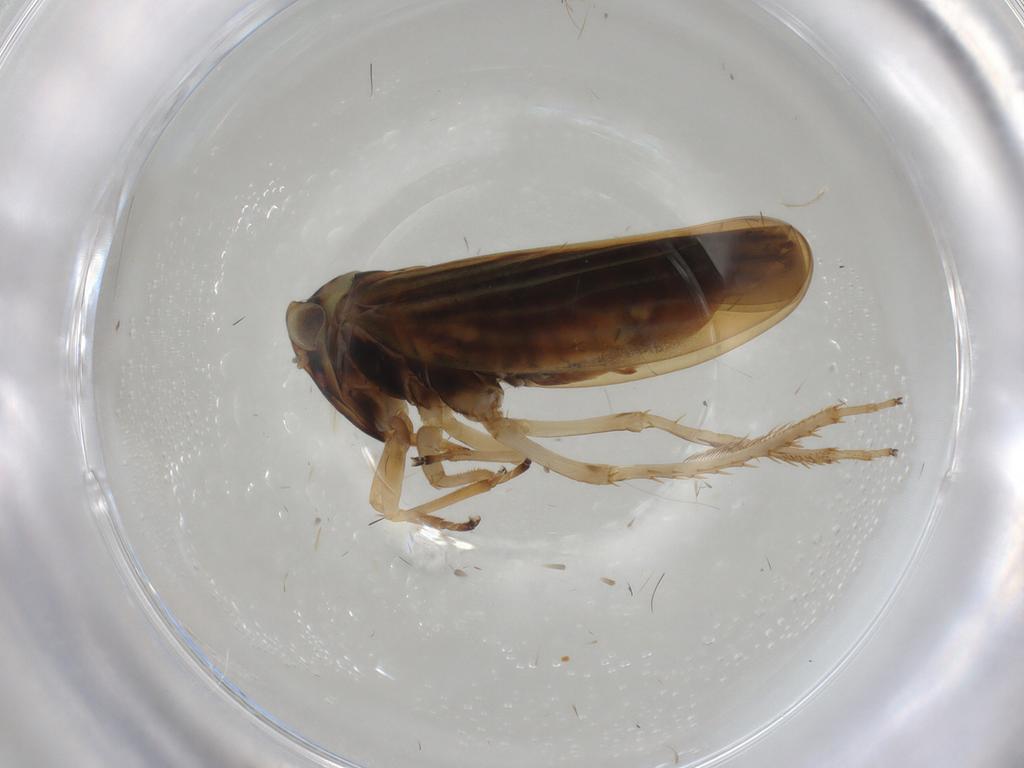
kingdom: Animalia
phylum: Arthropoda
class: Insecta
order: Hemiptera
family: Cicadellidae
